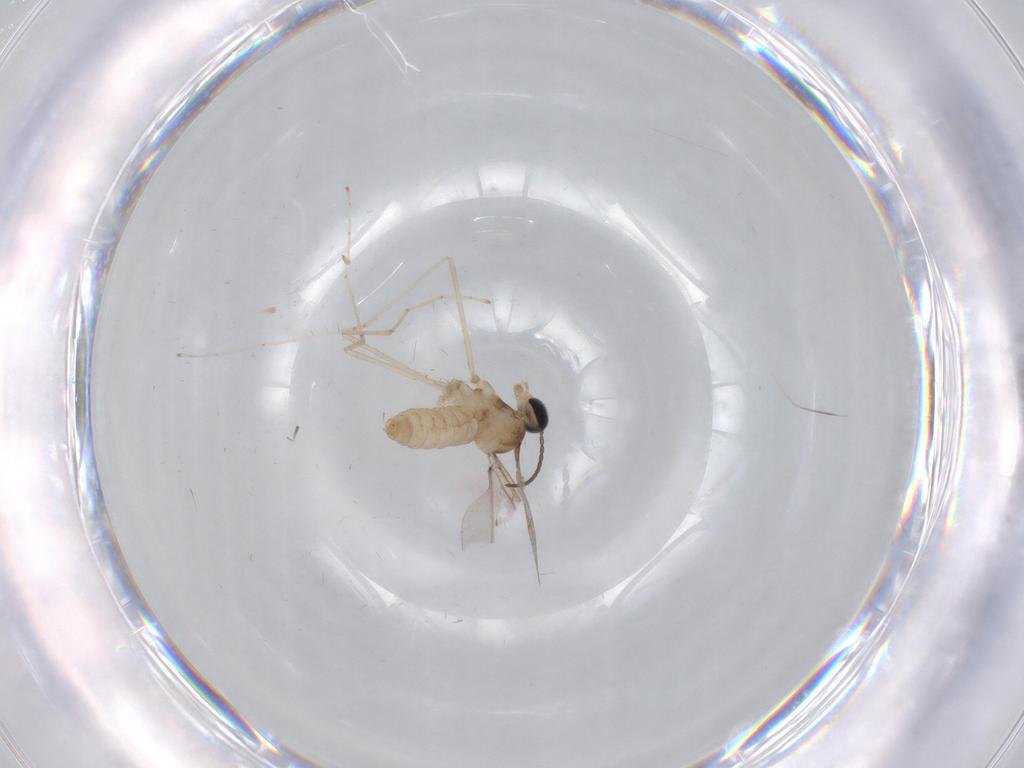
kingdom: Animalia
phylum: Arthropoda
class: Insecta
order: Diptera
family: Cecidomyiidae
